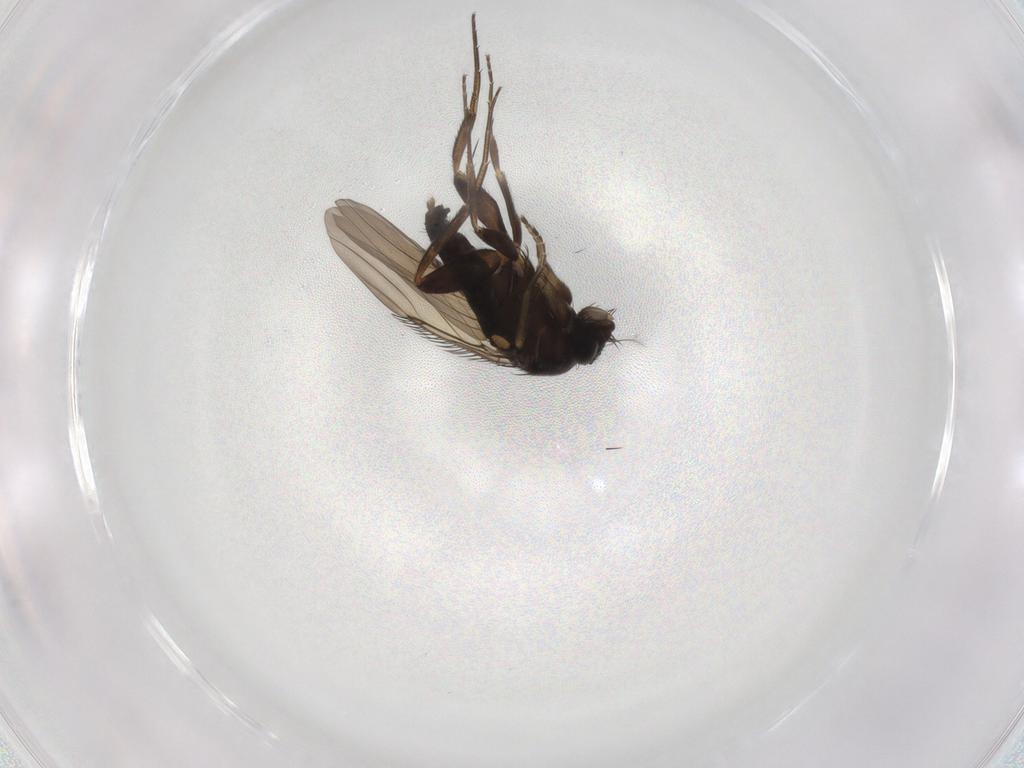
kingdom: Animalia
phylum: Arthropoda
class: Insecta
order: Diptera
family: Phoridae
